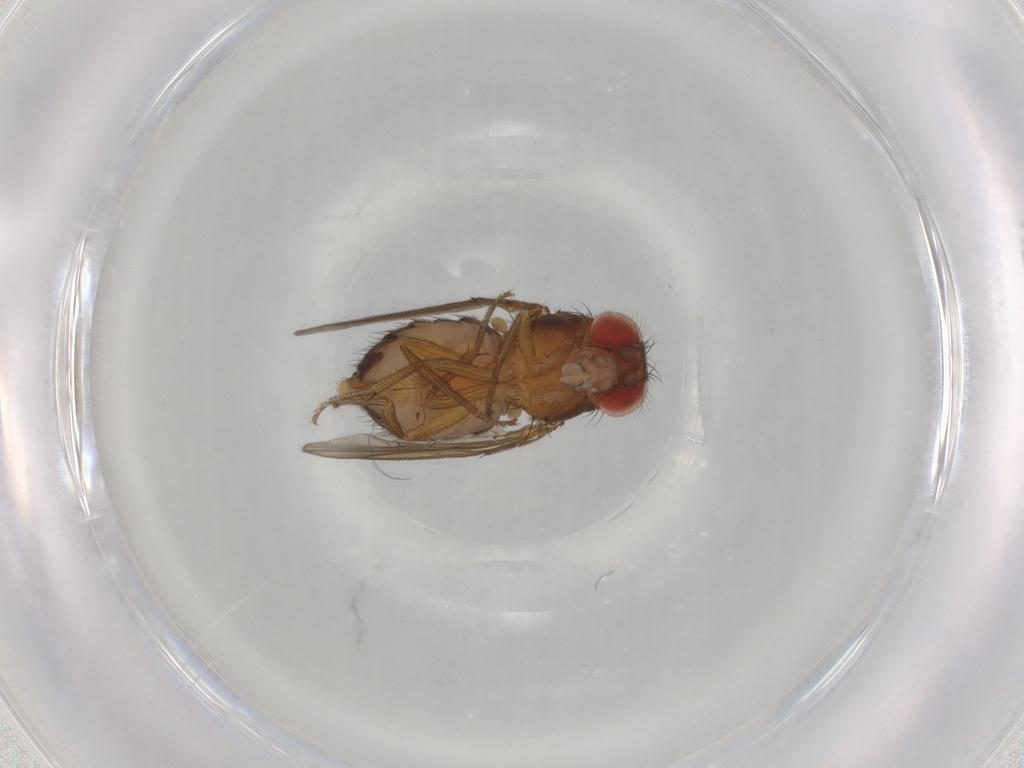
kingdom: Animalia
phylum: Arthropoda
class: Insecta
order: Diptera
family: Drosophilidae
